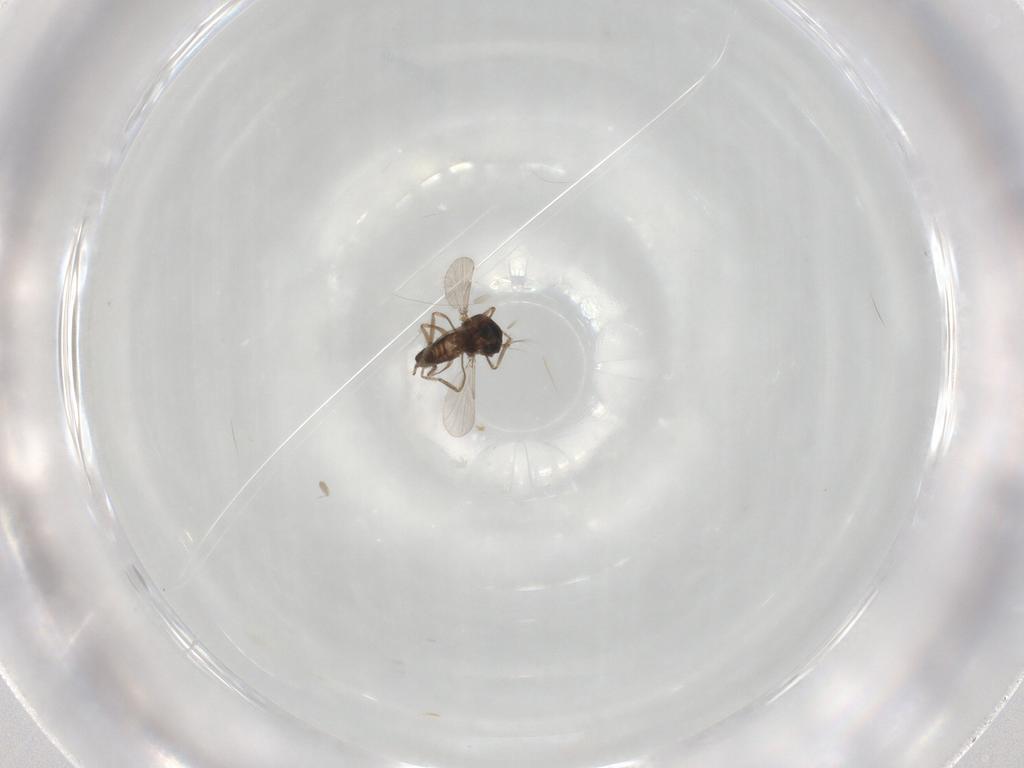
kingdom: Animalia
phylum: Arthropoda
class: Insecta
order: Diptera
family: Ceratopogonidae
